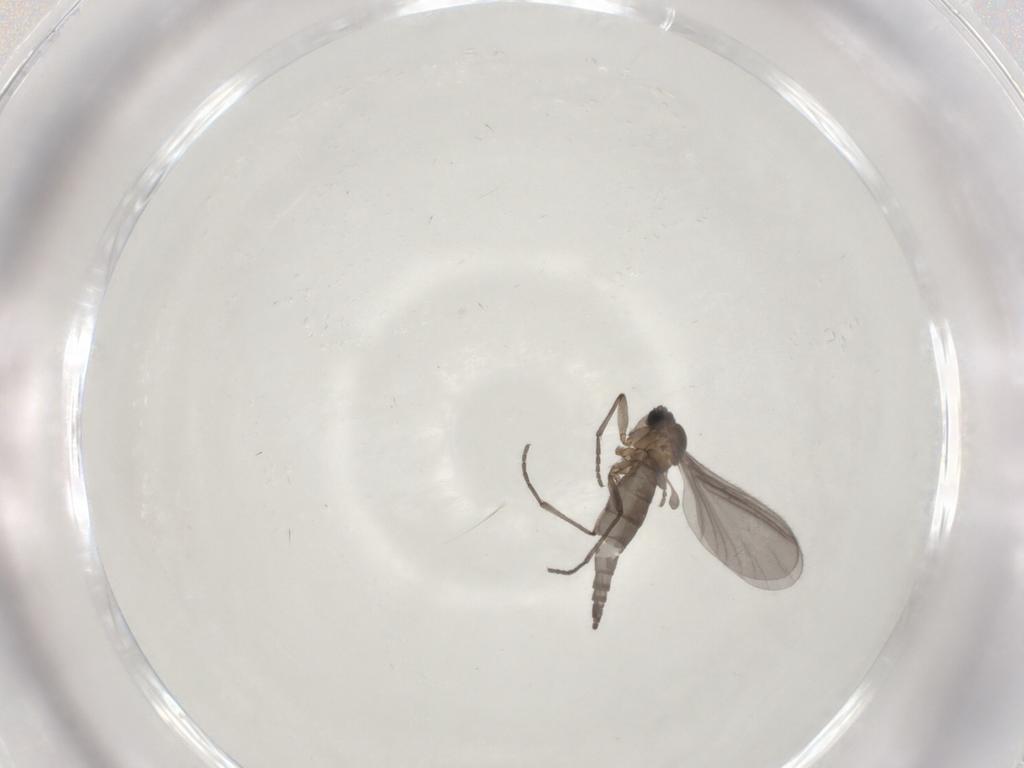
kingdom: Animalia
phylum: Arthropoda
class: Insecta
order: Diptera
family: Sciaridae
